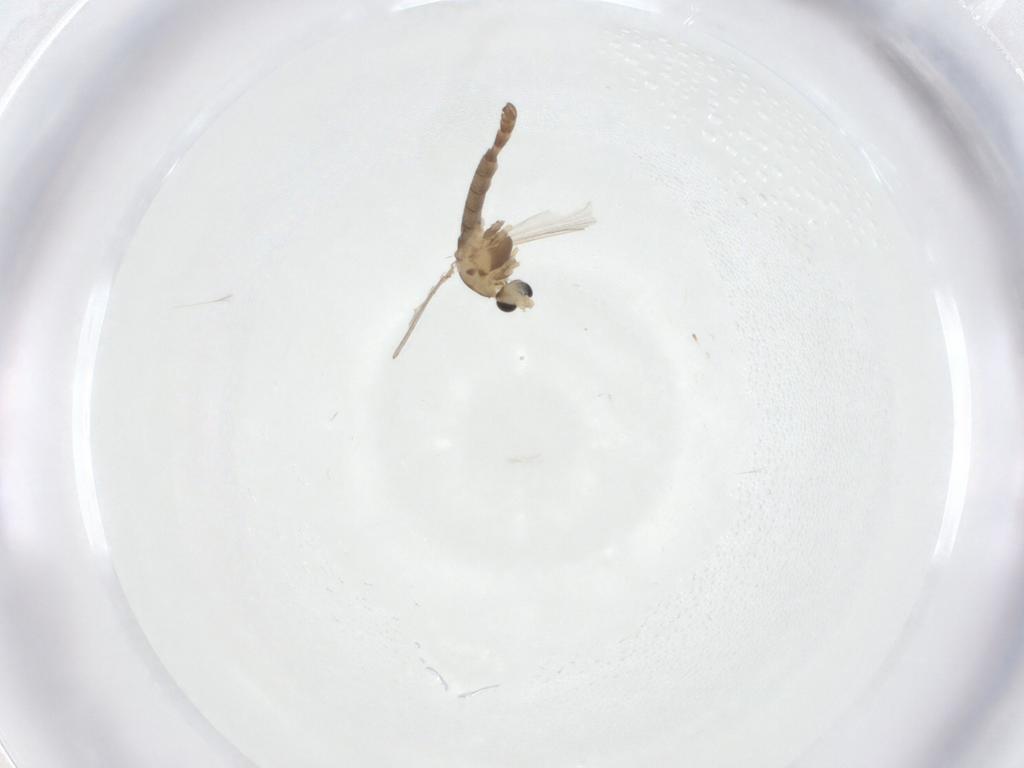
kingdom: Animalia
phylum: Arthropoda
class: Insecta
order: Diptera
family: Chironomidae
